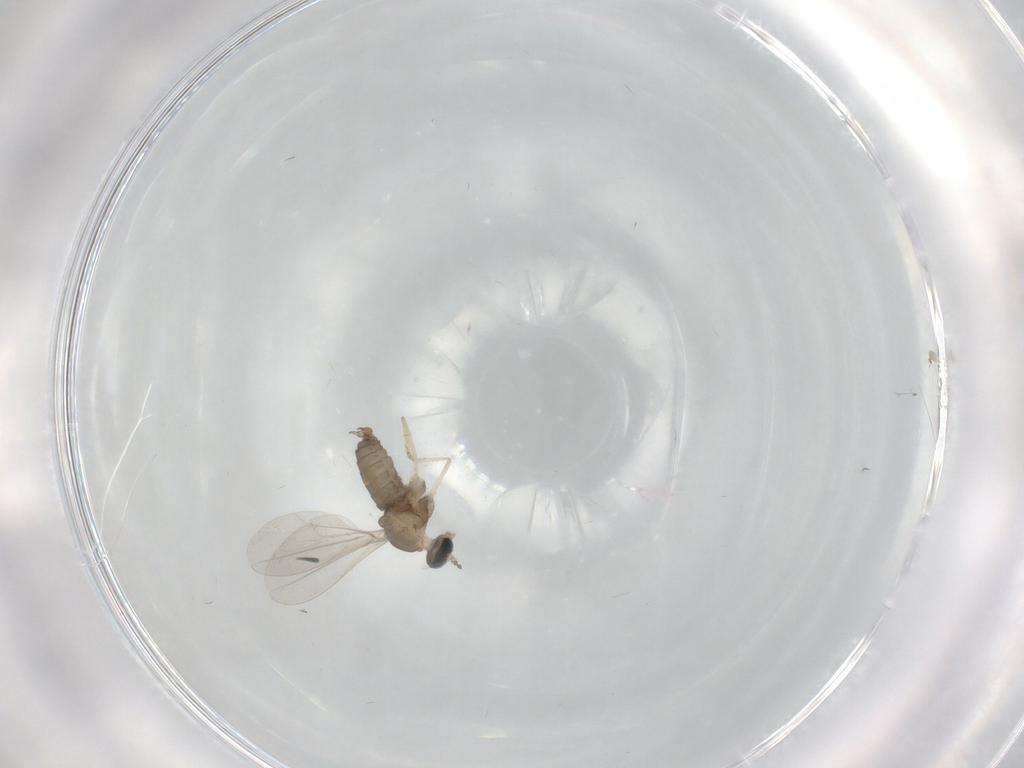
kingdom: Animalia
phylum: Arthropoda
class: Insecta
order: Diptera
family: Cecidomyiidae
